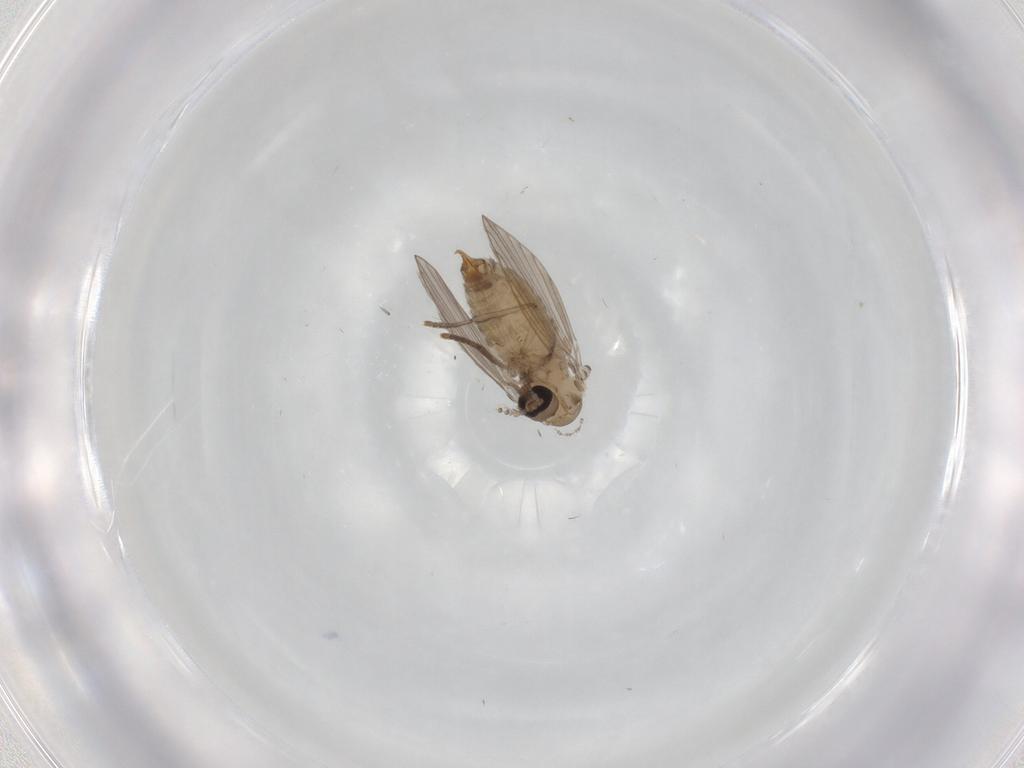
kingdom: Animalia
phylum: Arthropoda
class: Insecta
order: Diptera
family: Psychodidae
